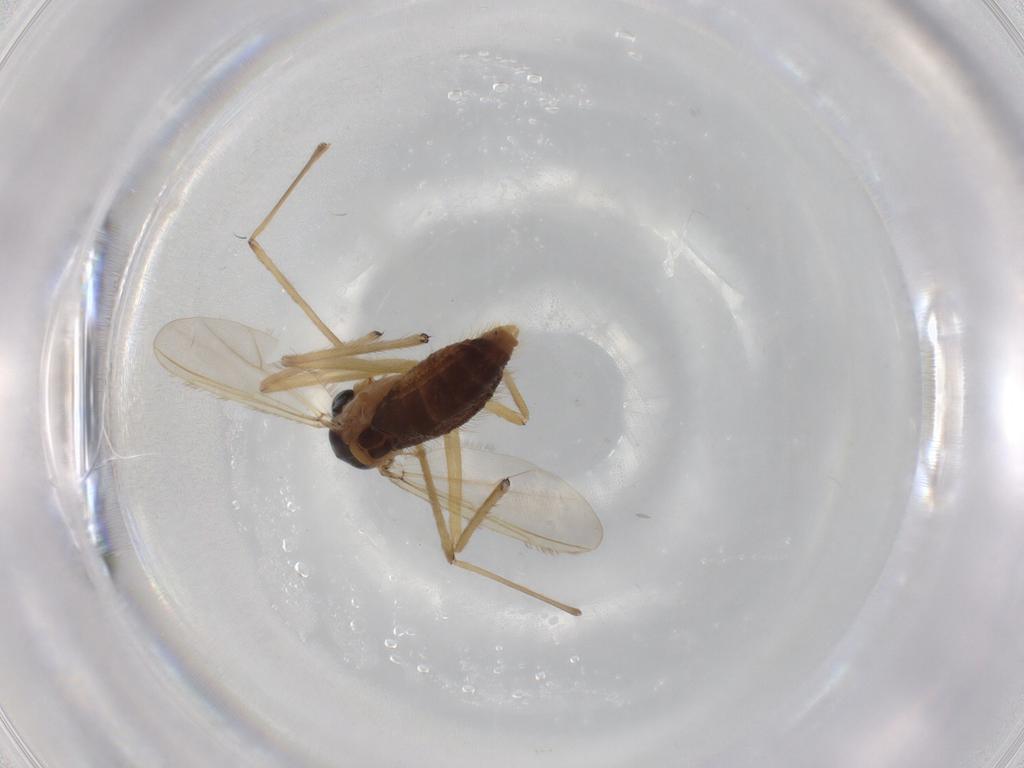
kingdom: Animalia
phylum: Arthropoda
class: Insecta
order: Diptera
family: Chironomidae
